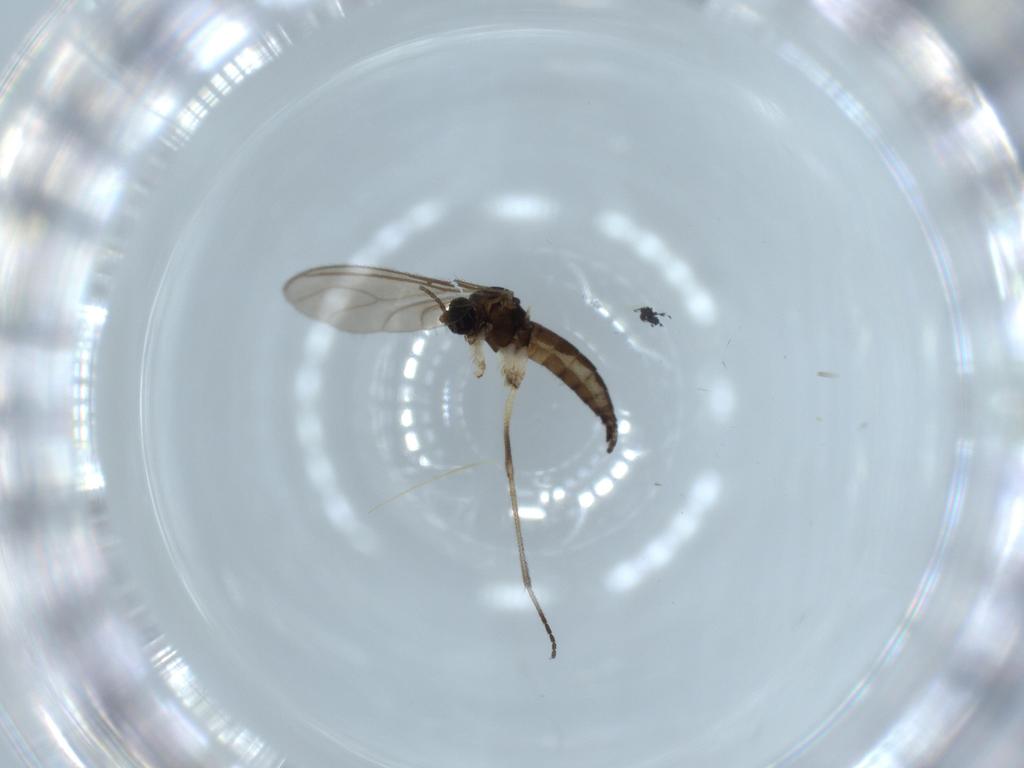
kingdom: Animalia
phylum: Arthropoda
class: Insecta
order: Diptera
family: Sciaridae
